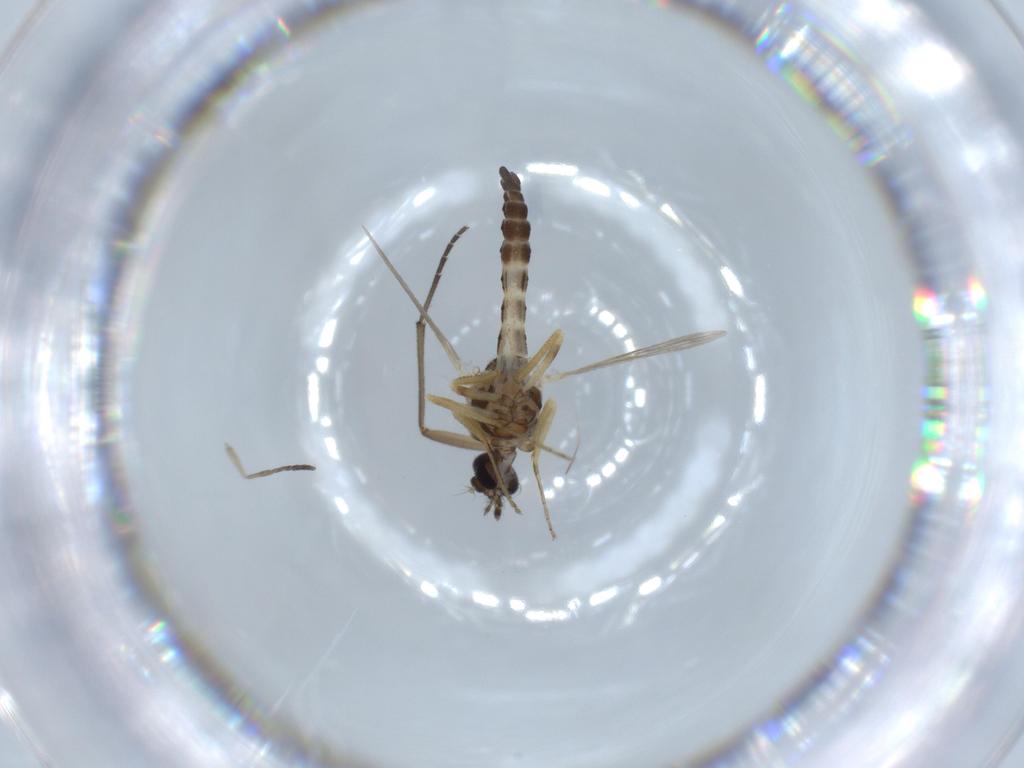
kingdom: Animalia
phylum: Arthropoda
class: Insecta
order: Diptera
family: Ceratopogonidae
